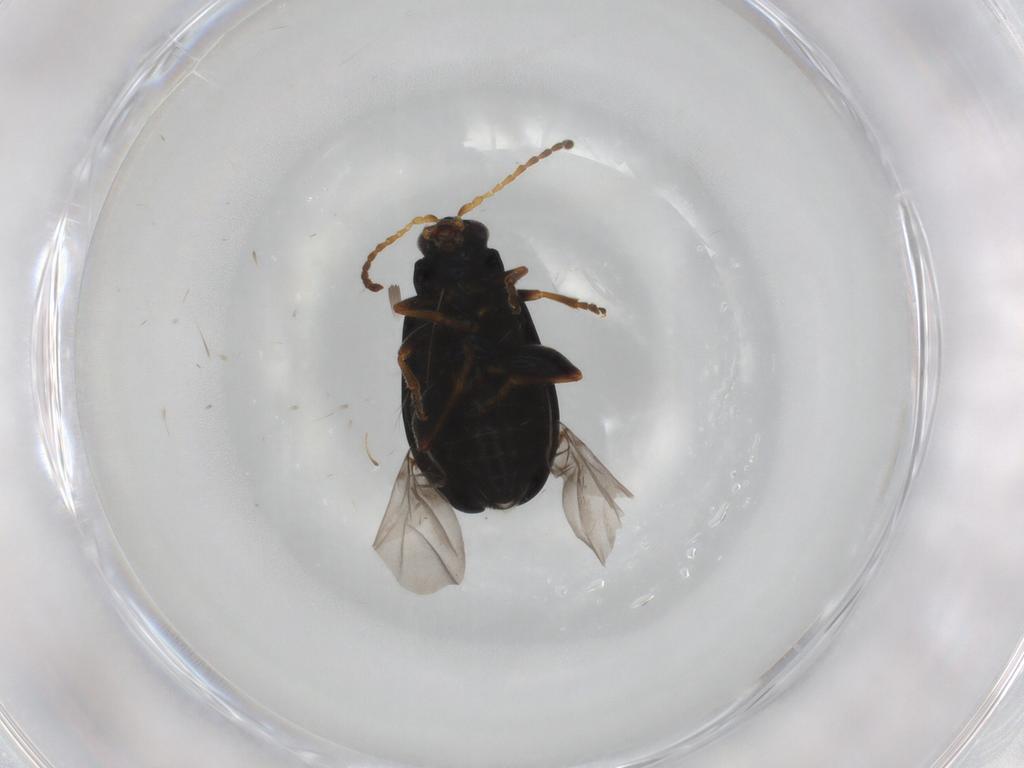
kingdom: Animalia
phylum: Arthropoda
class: Insecta
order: Coleoptera
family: Chrysomelidae
